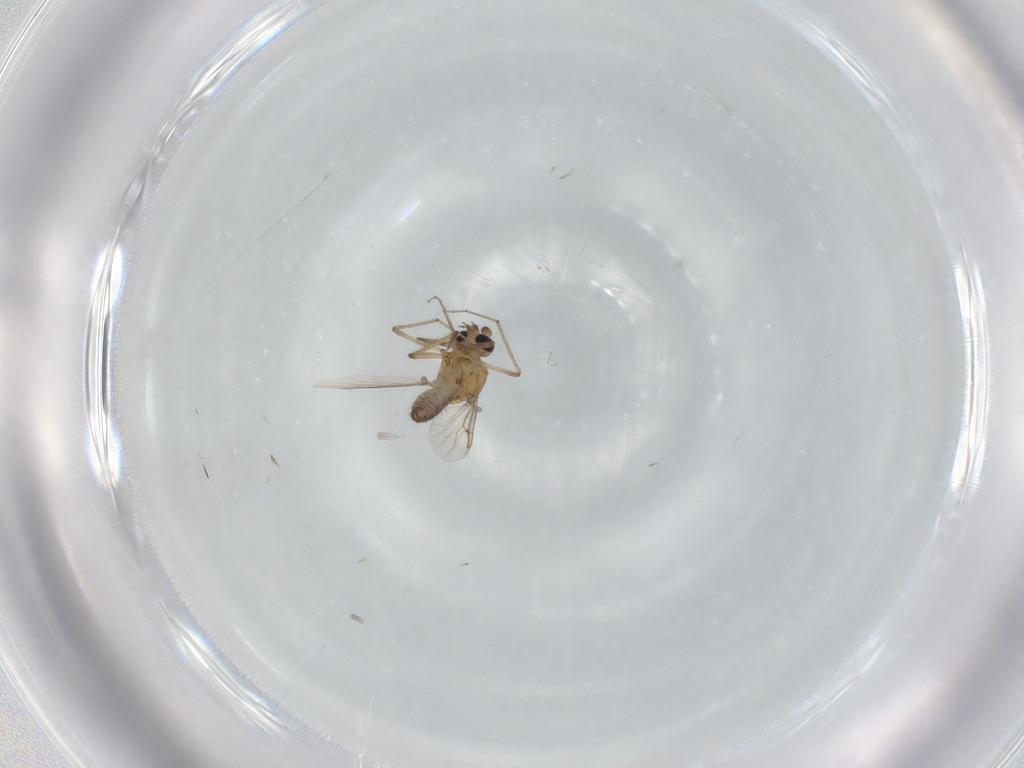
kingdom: Animalia
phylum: Arthropoda
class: Insecta
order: Diptera
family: Ceratopogonidae
